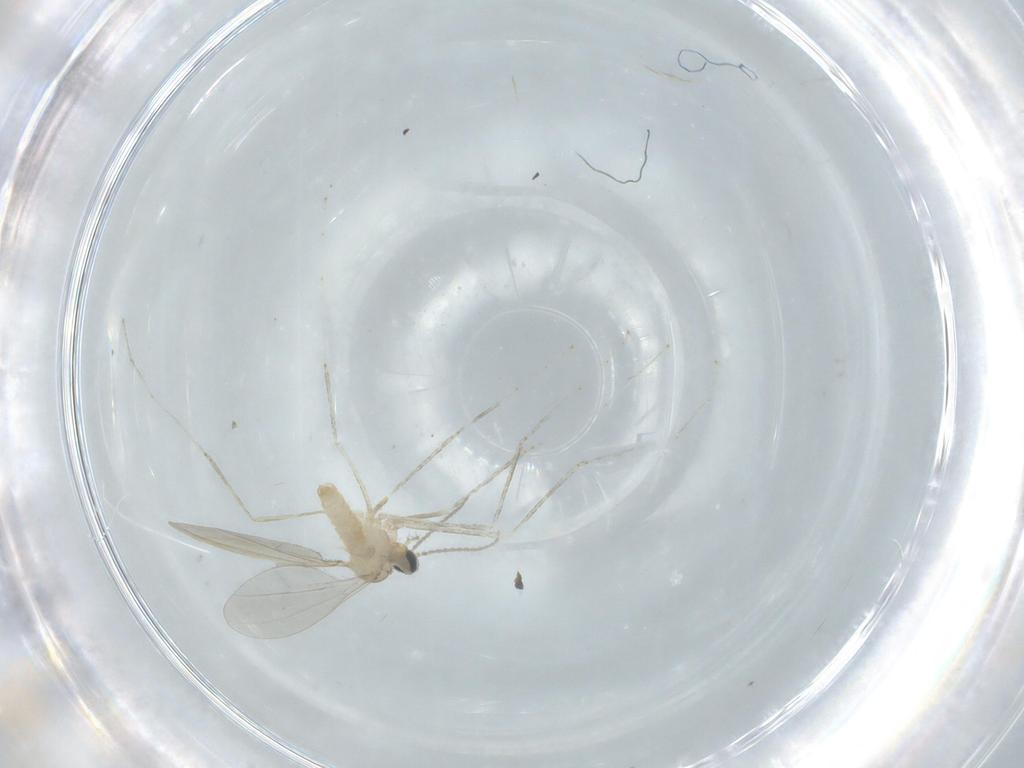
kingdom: Animalia
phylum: Arthropoda
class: Insecta
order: Diptera
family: Cecidomyiidae
